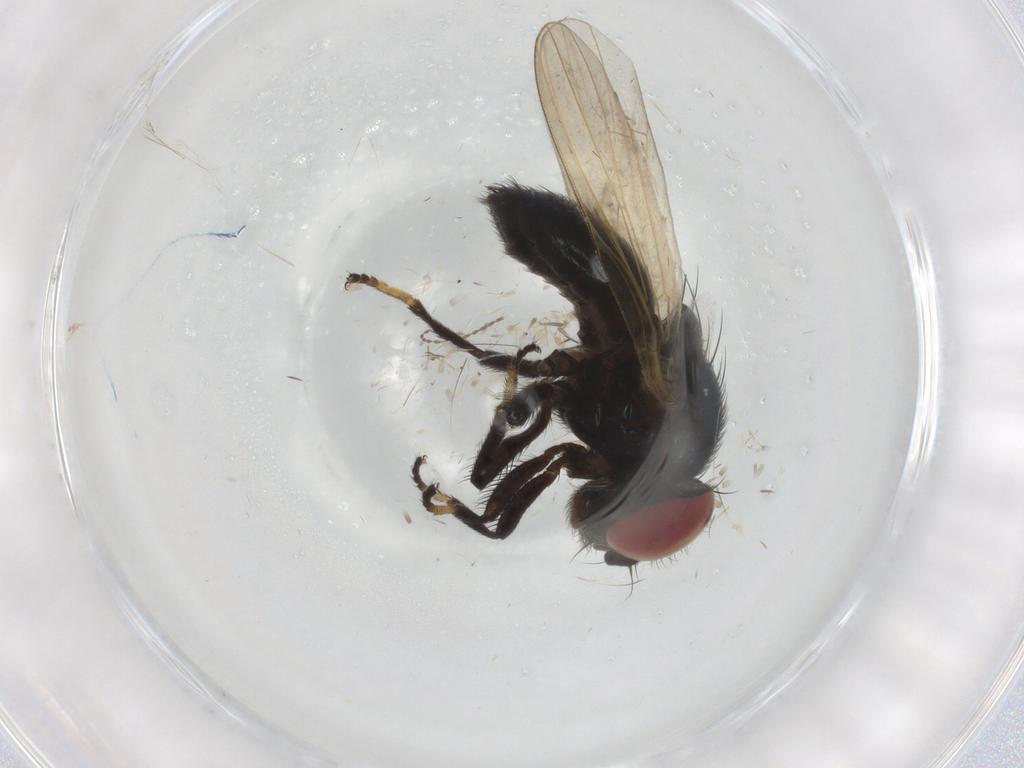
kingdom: Animalia
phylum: Arthropoda
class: Insecta
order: Diptera
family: Lonchaeidae
